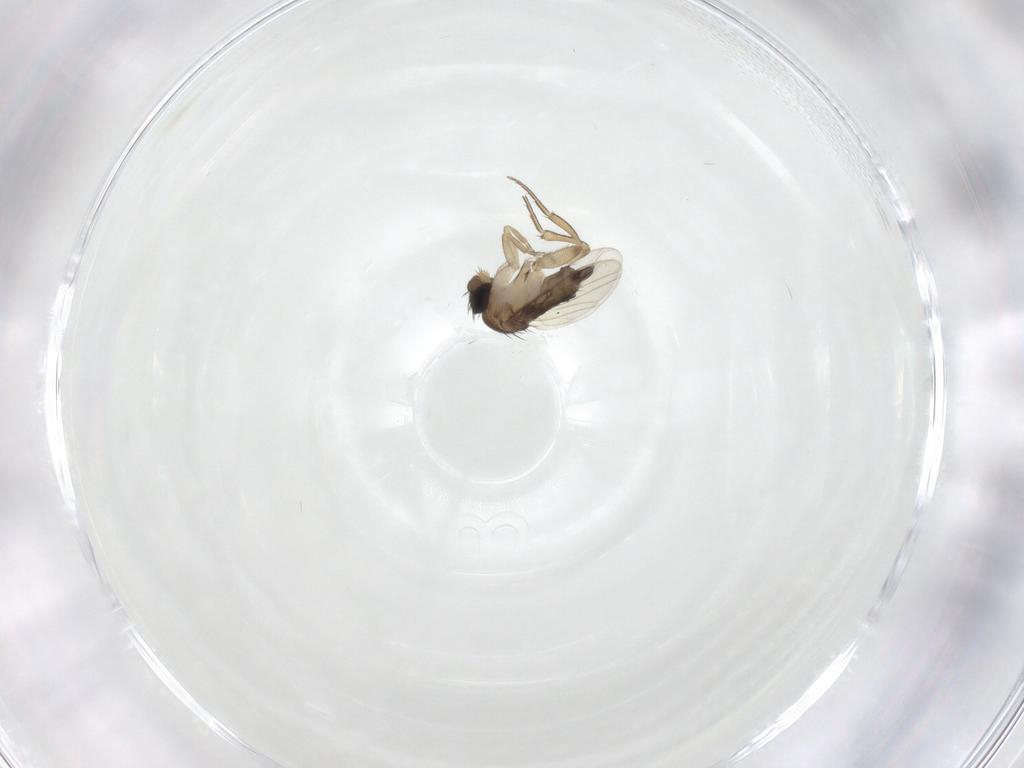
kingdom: Animalia
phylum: Arthropoda
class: Insecta
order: Diptera
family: Phoridae
